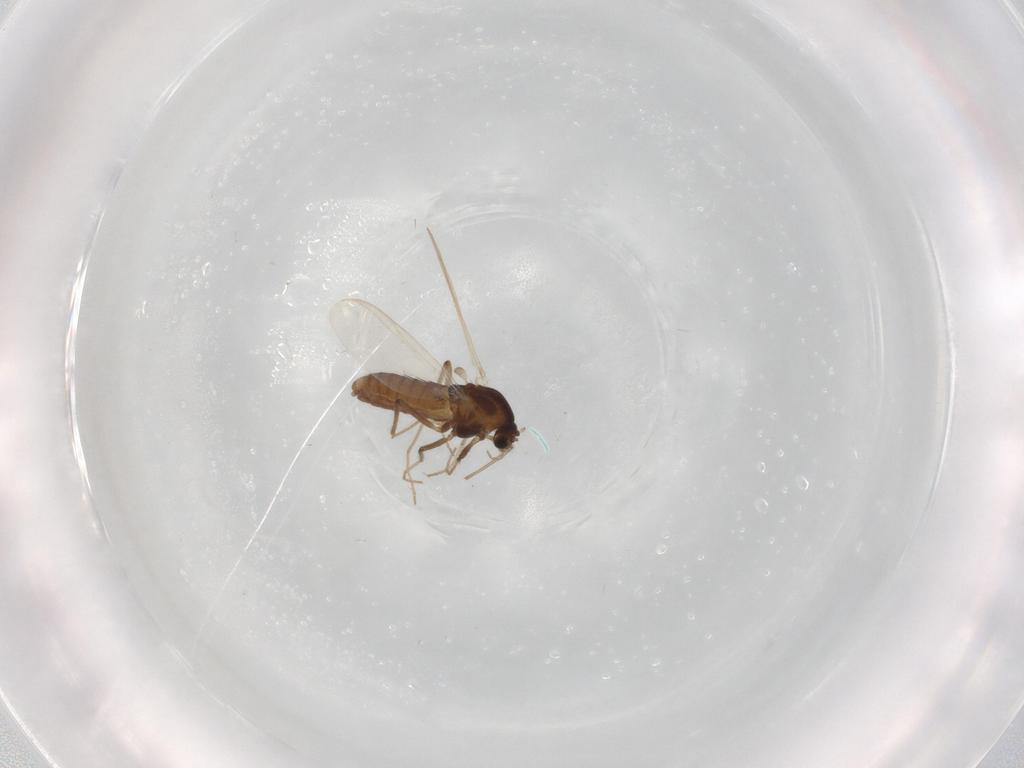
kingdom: Animalia
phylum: Arthropoda
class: Insecta
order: Diptera
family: Chironomidae
